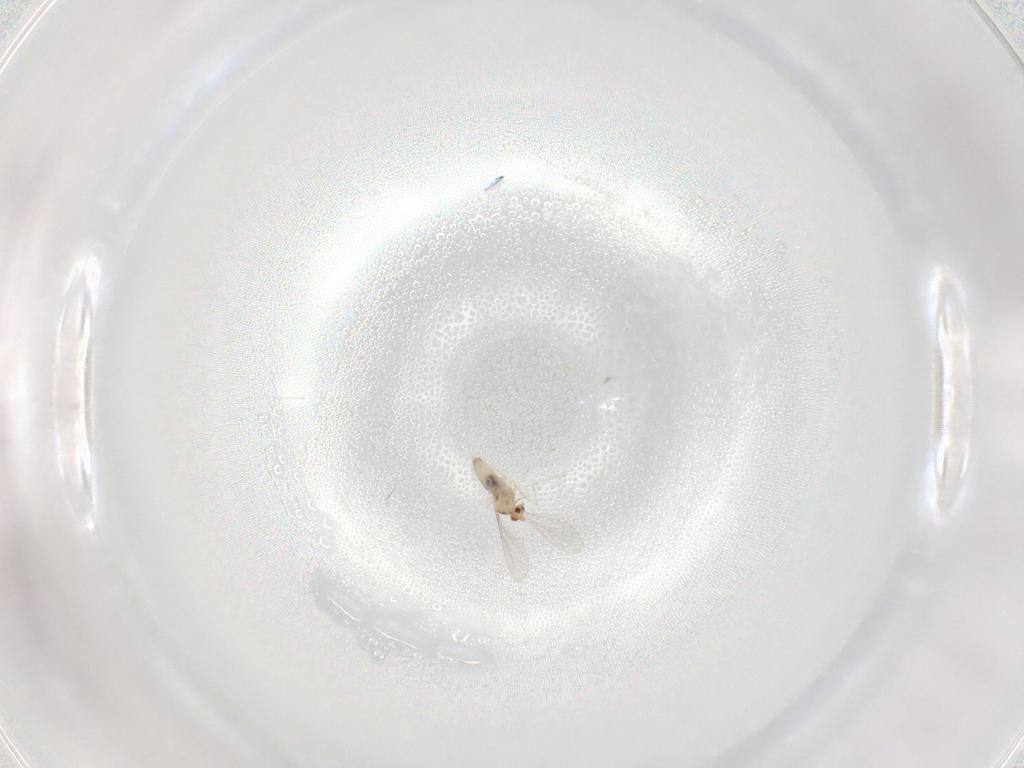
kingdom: Animalia
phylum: Arthropoda
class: Insecta
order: Diptera
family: Cecidomyiidae
